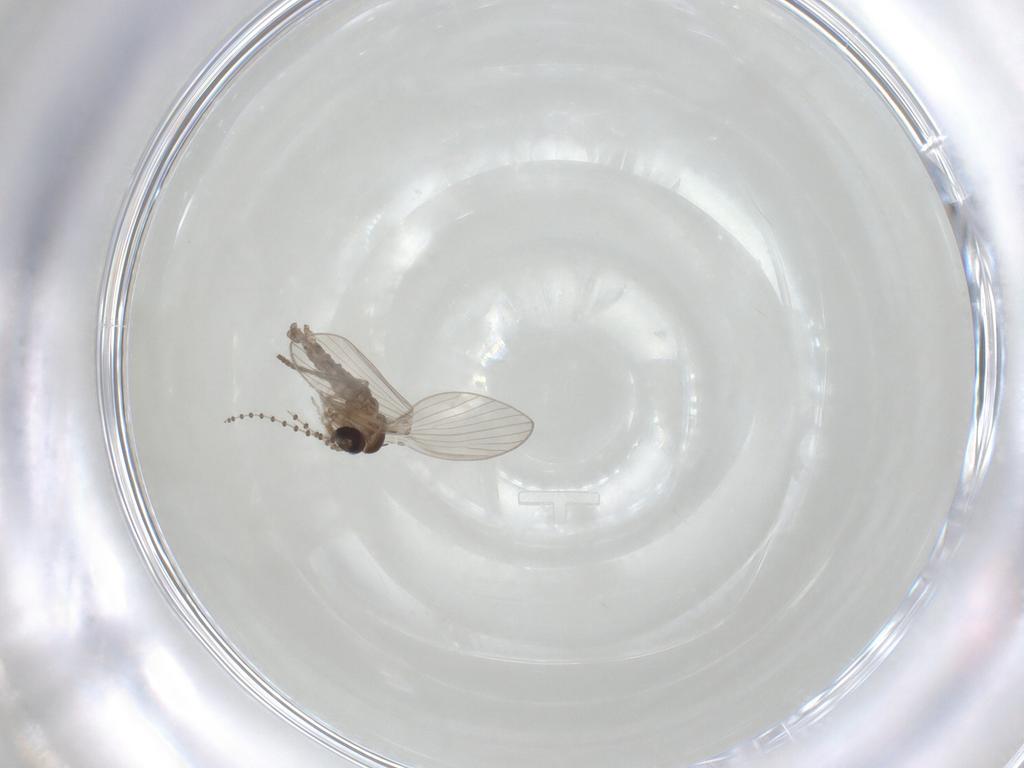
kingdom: Animalia
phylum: Arthropoda
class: Insecta
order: Diptera
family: Psychodidae
